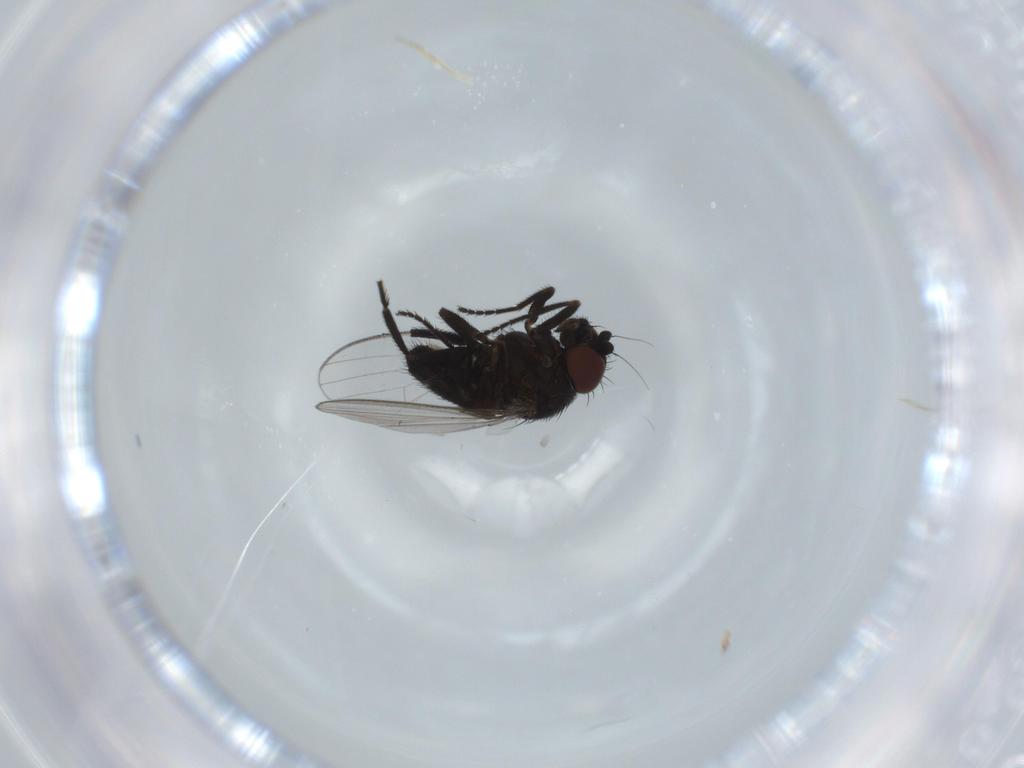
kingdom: Animalia
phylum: Arthropoda
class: Insecta
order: Diptera
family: Milichiidae
